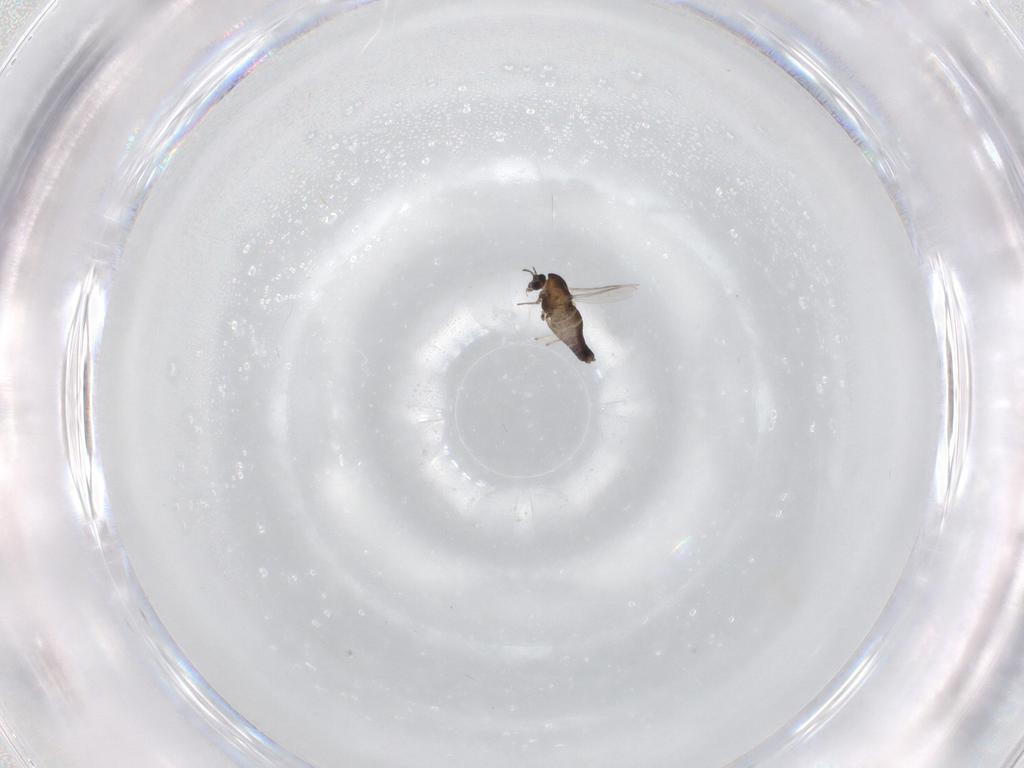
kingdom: Animalia
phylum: Arthropoda
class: Insecta
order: Diptera
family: Chironomidae
